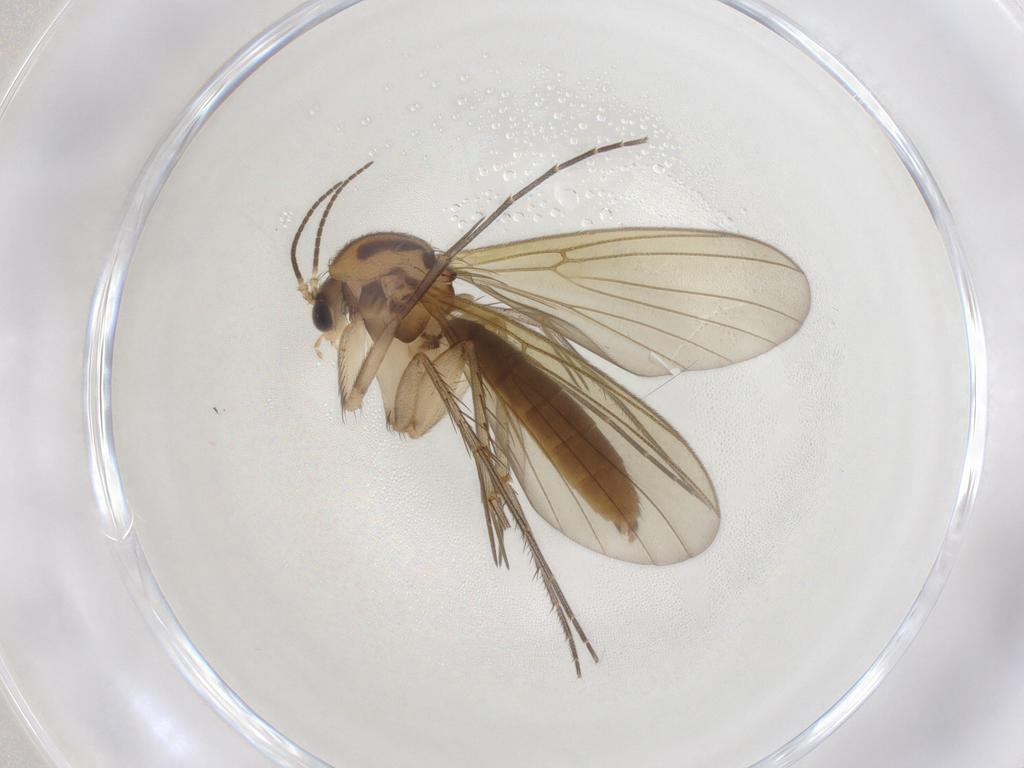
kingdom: Animalia
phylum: Arthropoda
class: Insecta
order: Diptera
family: Mycetophilidae
